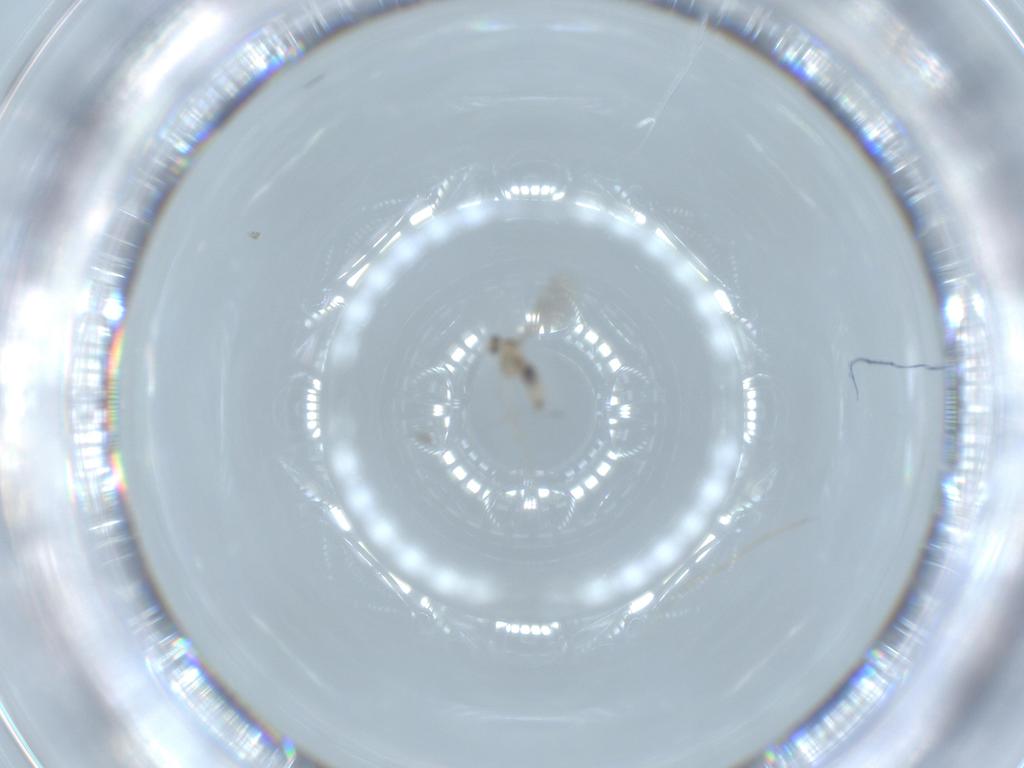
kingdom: Animalia
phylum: Arthropoda
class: Insecta
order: Diptera
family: Cecidomyiidae
